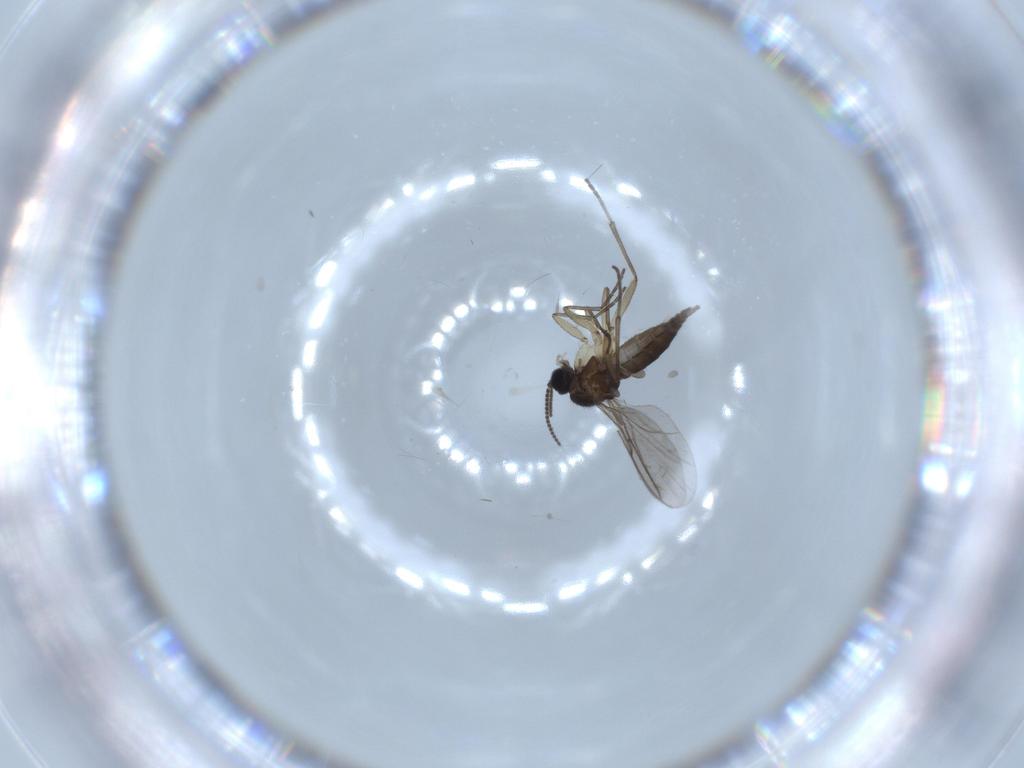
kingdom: Animalia
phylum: Arthropoda
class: Insecta
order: Diptera
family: Sciaridae
